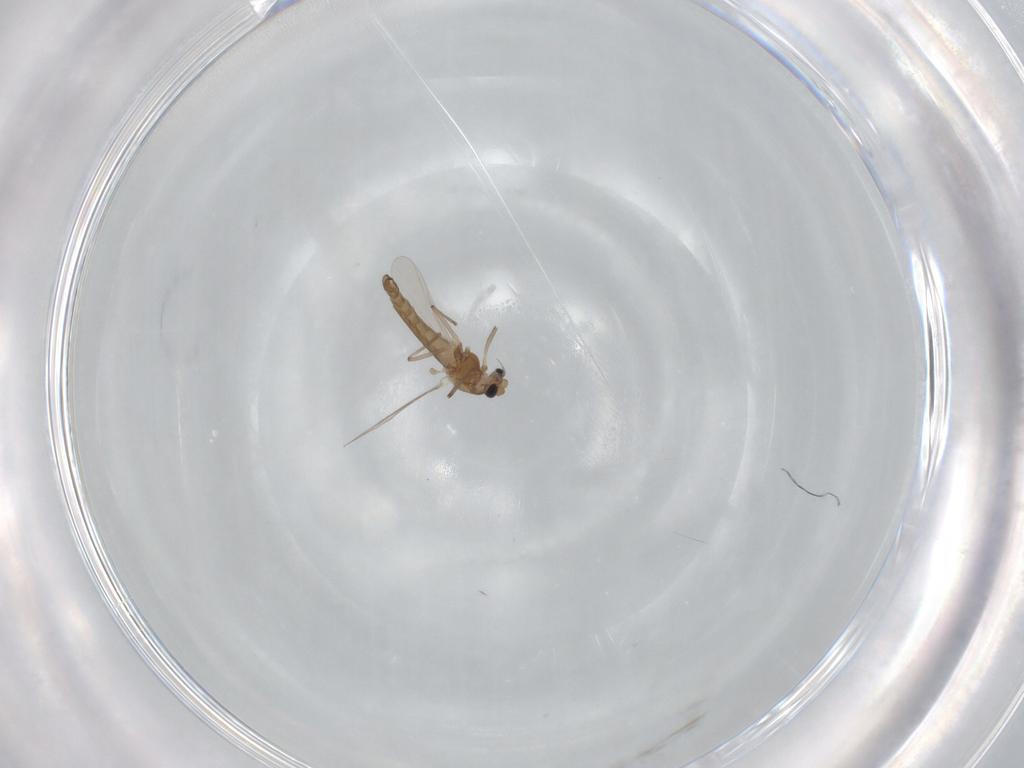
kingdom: Animalia
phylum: Arthropoda
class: Insecta
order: Diptera
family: Chironomidae
